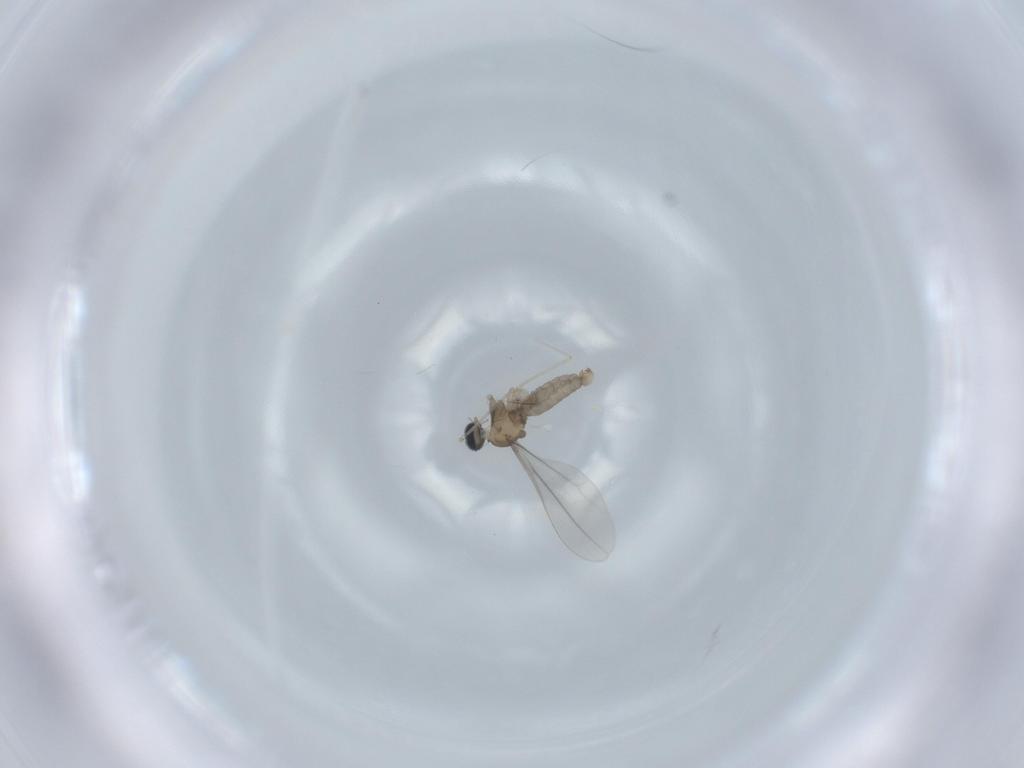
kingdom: Animalia
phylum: Arthropoda
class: Insecta
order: Diptera
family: Cecidomyiidae
